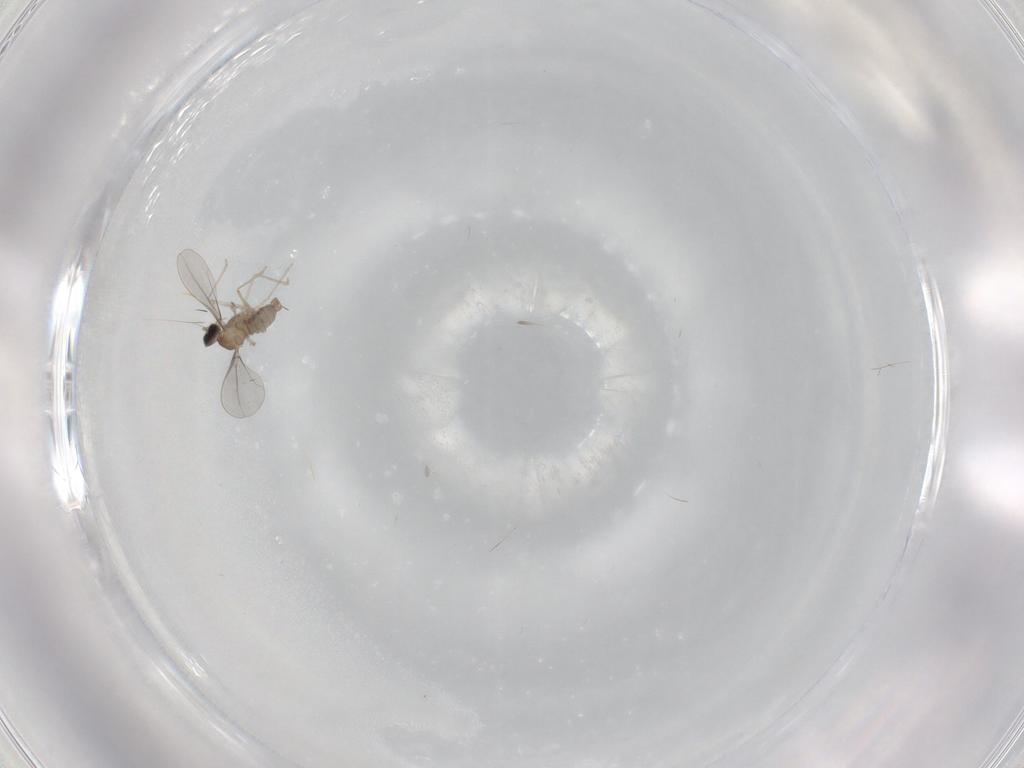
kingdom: Animalia
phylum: Arthropoda
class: Insecta
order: Diptera
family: Cecidomyiidae
